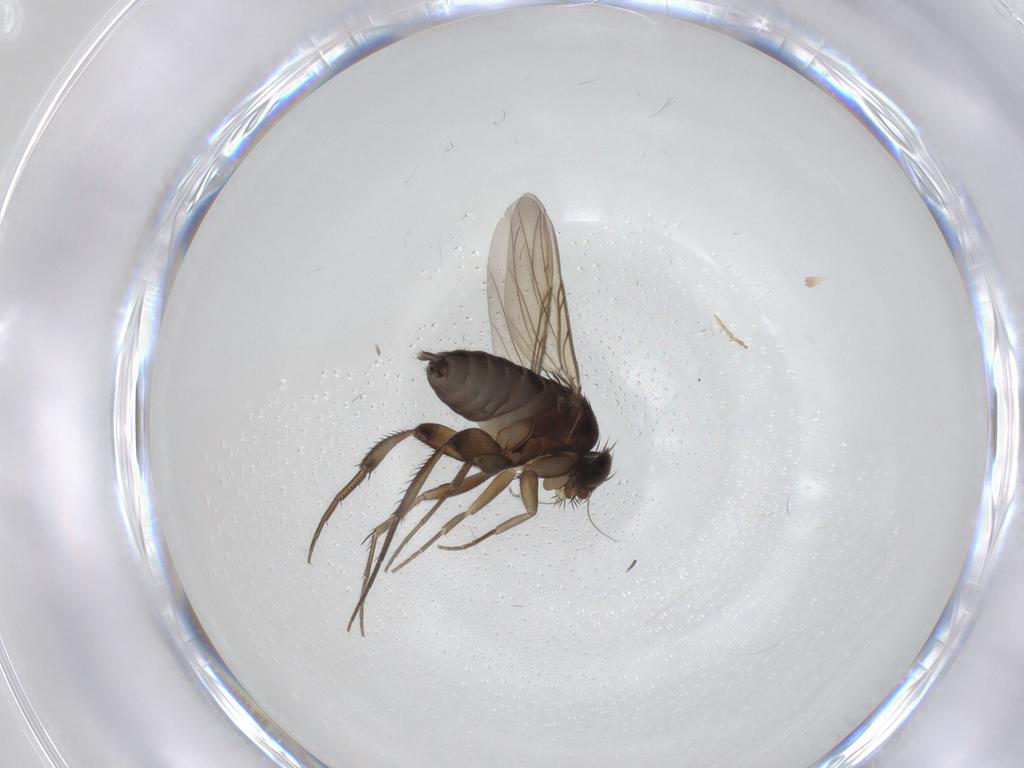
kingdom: Animalia
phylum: Arthropoda
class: Insecta
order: Diptera
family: Phoridae
